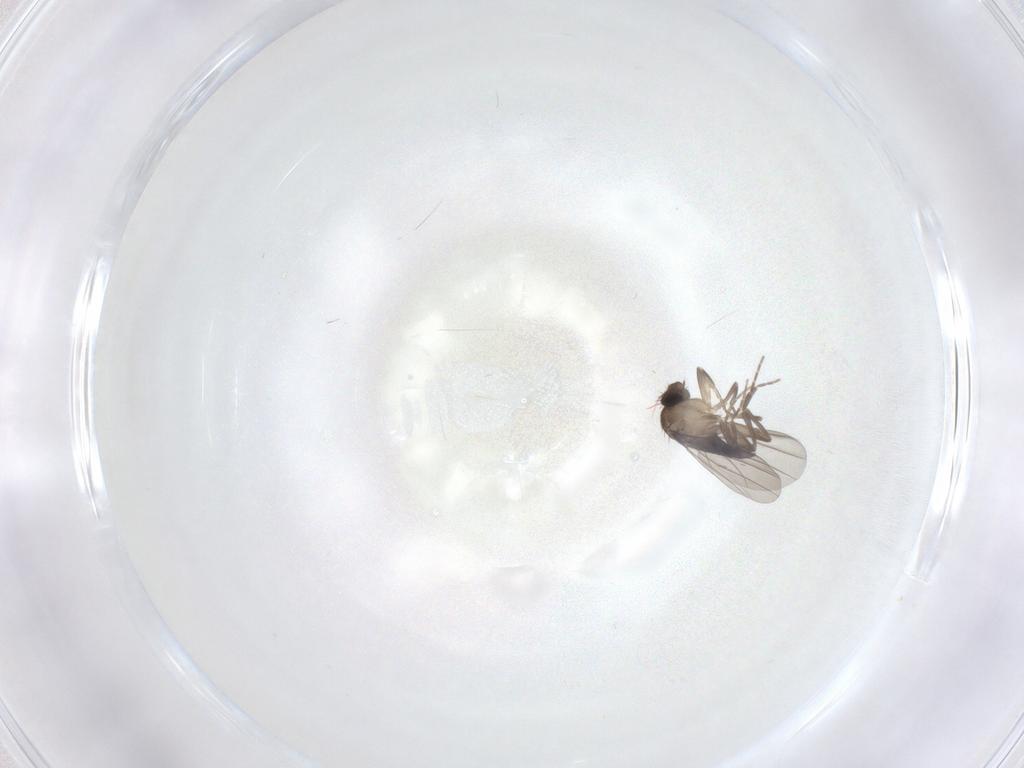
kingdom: Animalia
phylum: Arthropoda
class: Insecta
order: Diptera
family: Phoridae
